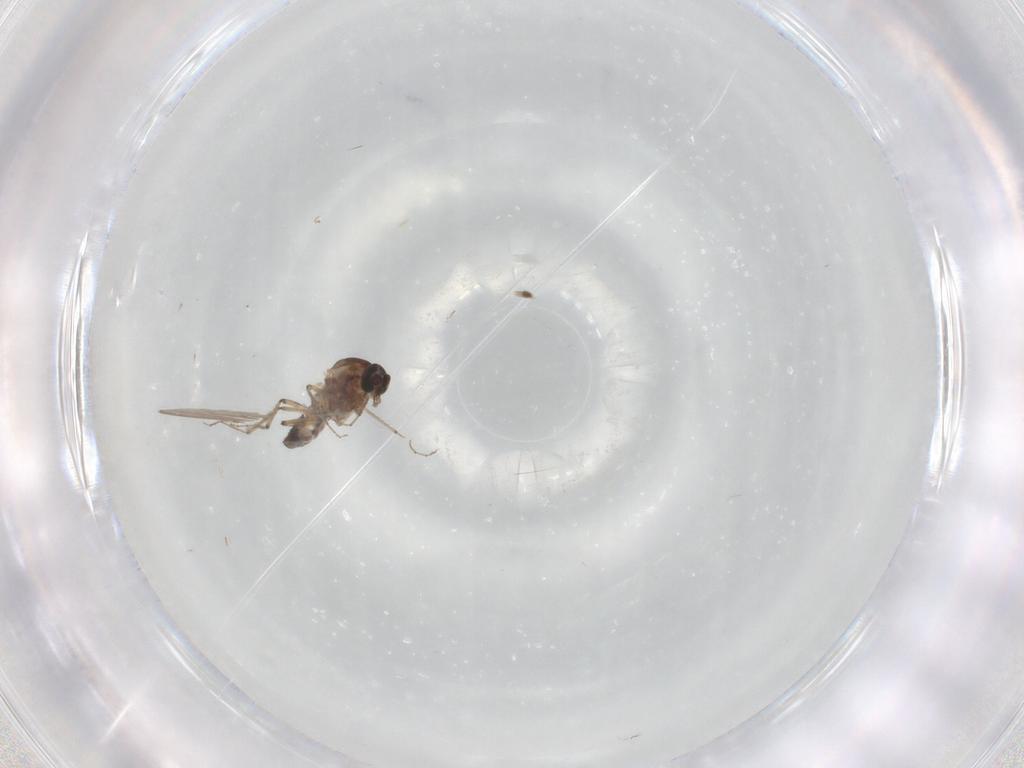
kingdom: Animalia
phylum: Arthropoda
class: Insecta
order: Diptera
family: Ceratopogonidae
